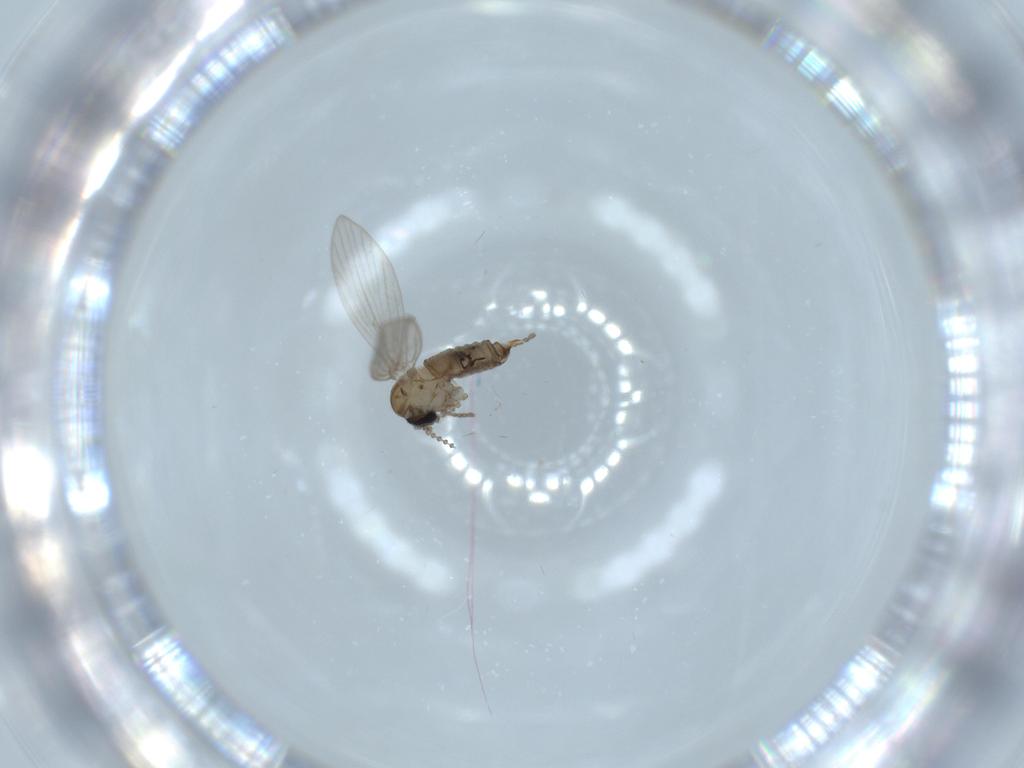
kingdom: Animalia
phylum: Arthropoda
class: Insecta
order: Diptera
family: Psychodidae
